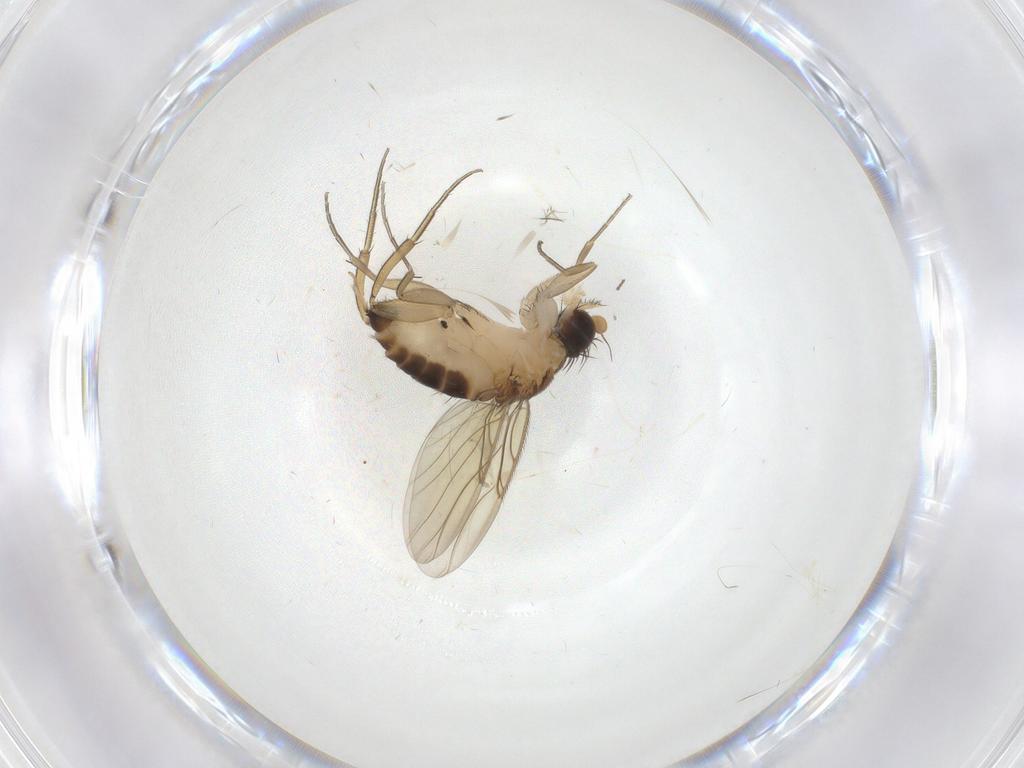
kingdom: Animalia
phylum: Arthropoda
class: Insecta
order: Diptera
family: Phoridae
